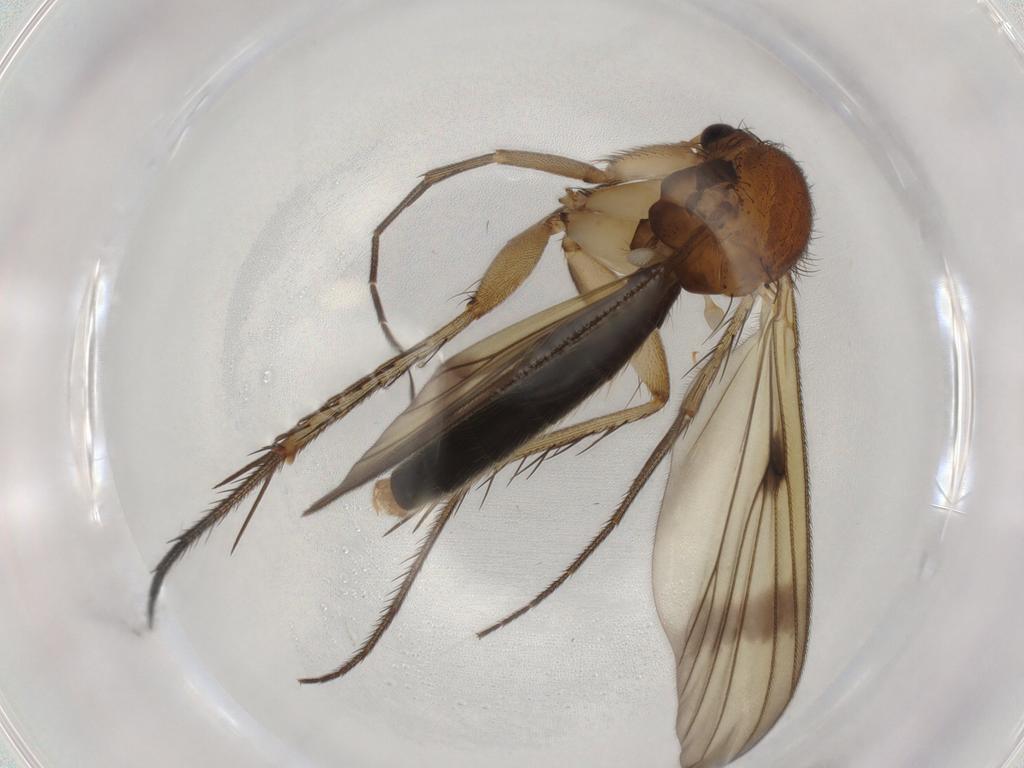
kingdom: Animalia
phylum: Arthropoda
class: Insecta
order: Diptera
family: Mycetophilidae
